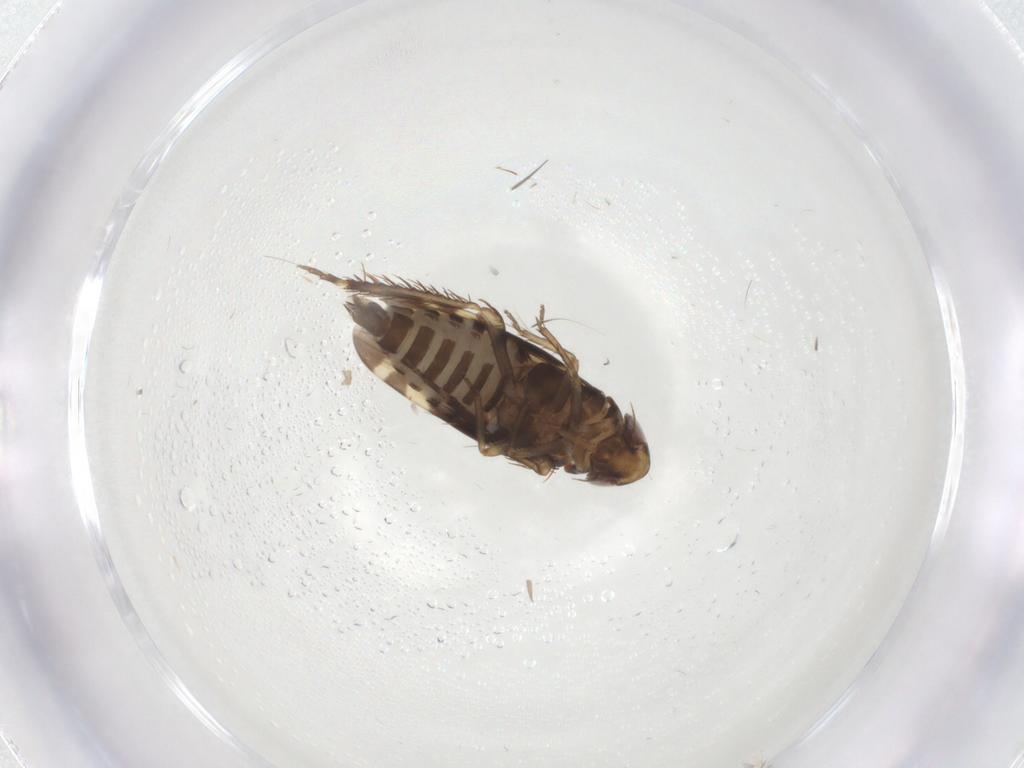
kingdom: Animalia
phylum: Arthropoda
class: Insecta
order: Hemiptera
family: Cicadellidae
